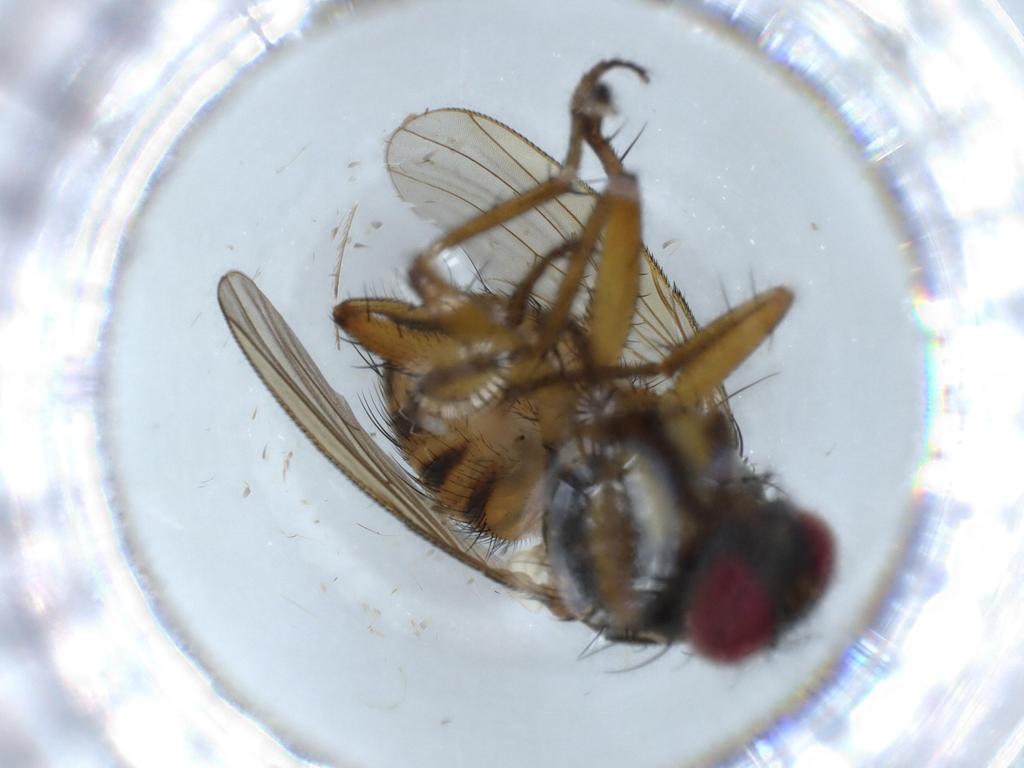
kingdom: Animalia
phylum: Arthropoda
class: Insecta
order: Diptera
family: Muscidae
